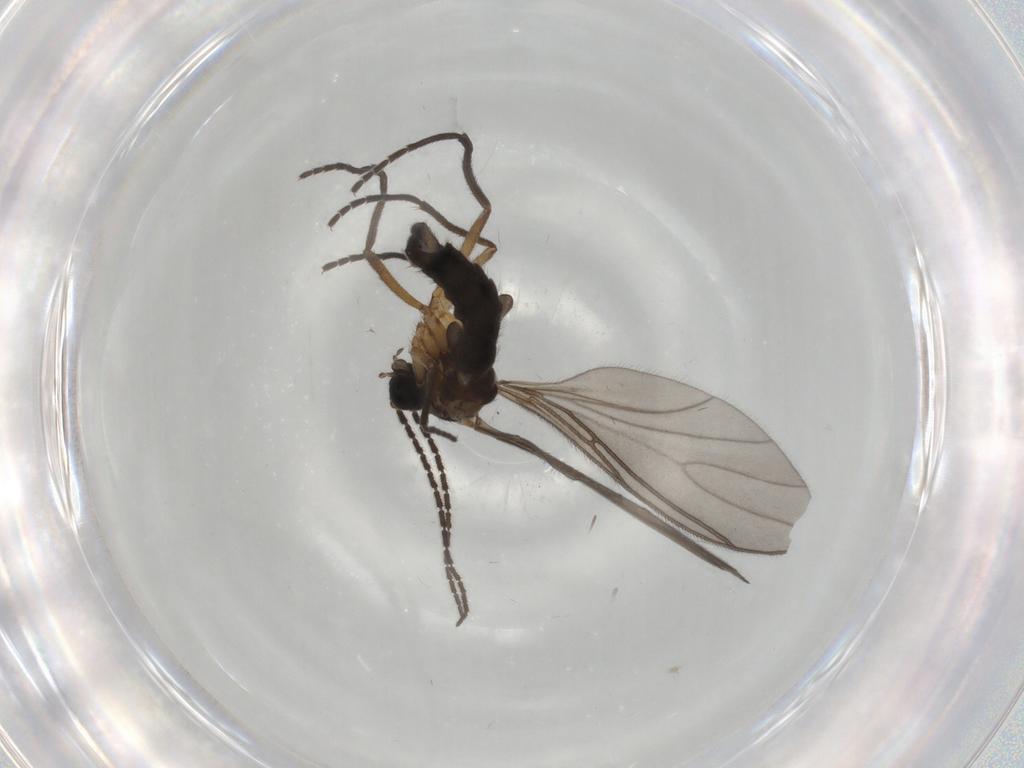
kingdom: Animalia
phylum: Arthropoda
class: Insecta
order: Diptera
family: Sciaridae
